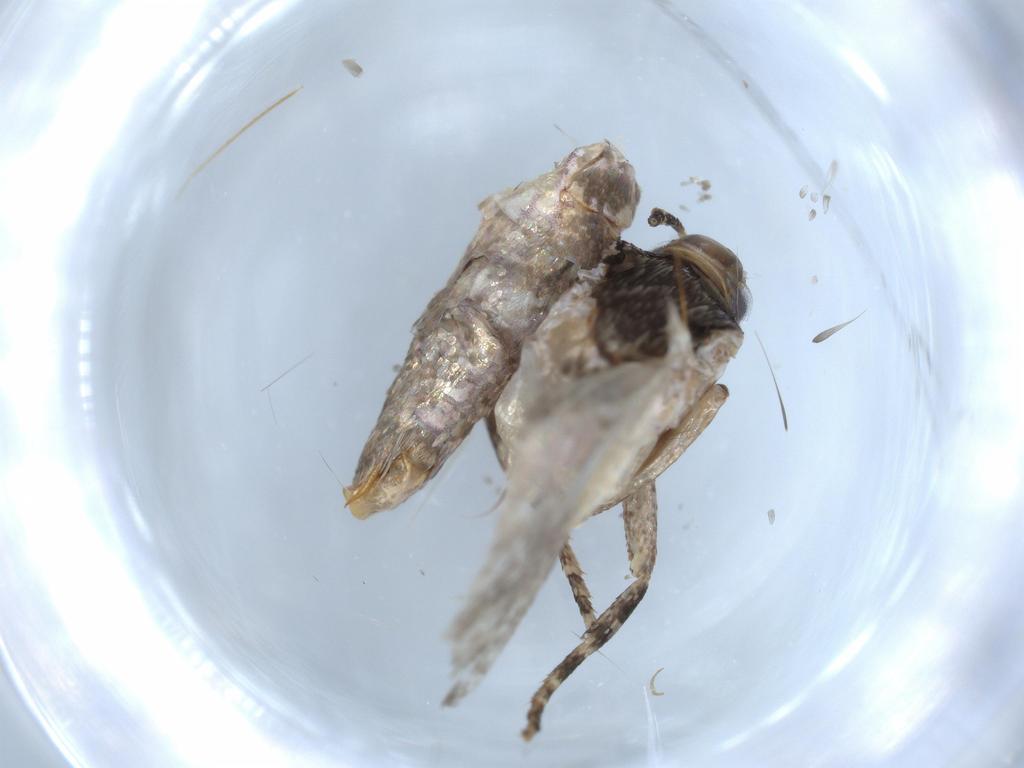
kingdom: Animalia
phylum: Arthropoda
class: Insecta
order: Lepidoptera
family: Gelechiidae
